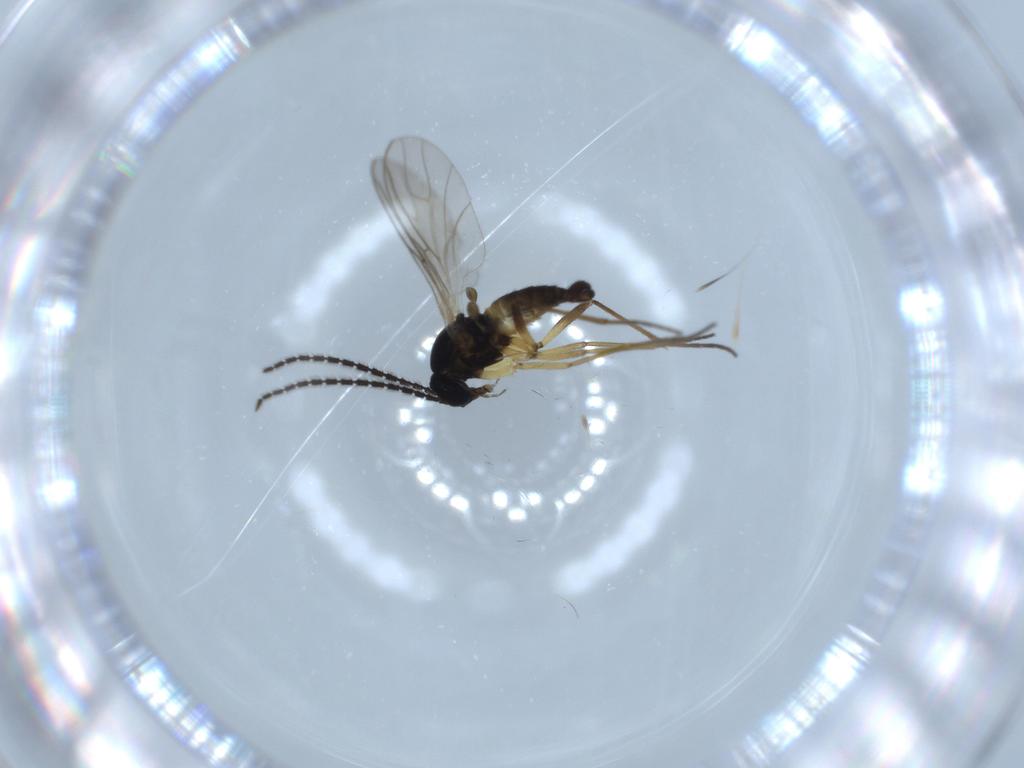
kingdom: Animalia
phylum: Arthropoda
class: Insecta
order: Diptera
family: Sciaridae
